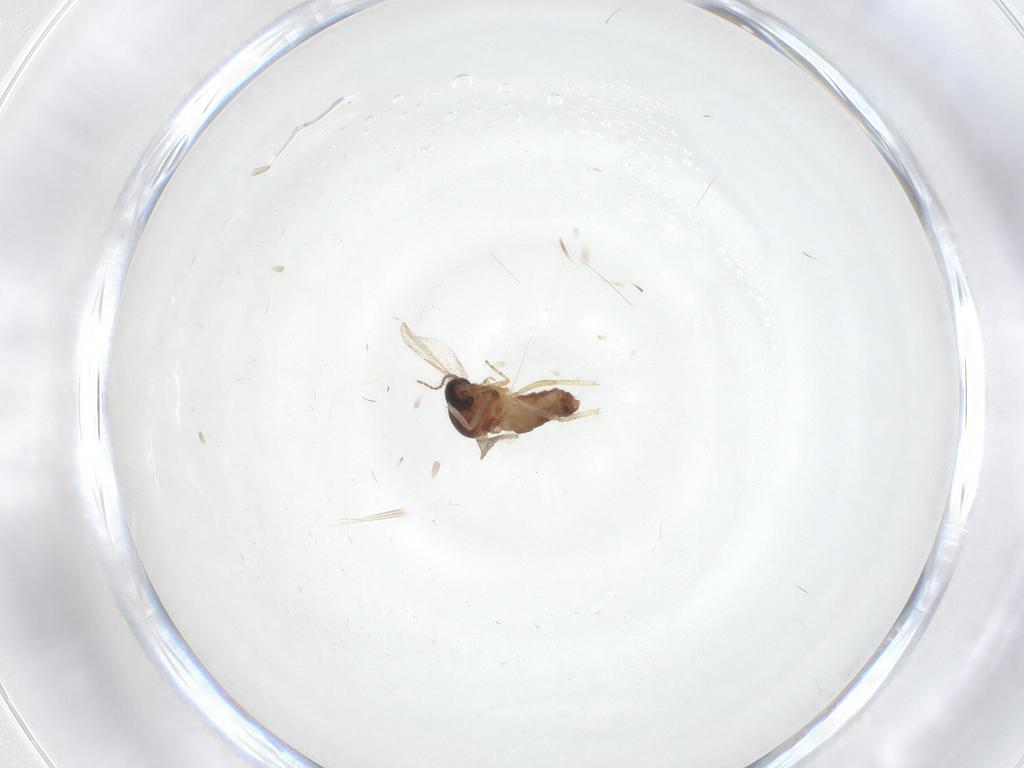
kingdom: Animalia
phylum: Arthropoda
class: Insecta
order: Diptera
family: Ceratopogonidae
